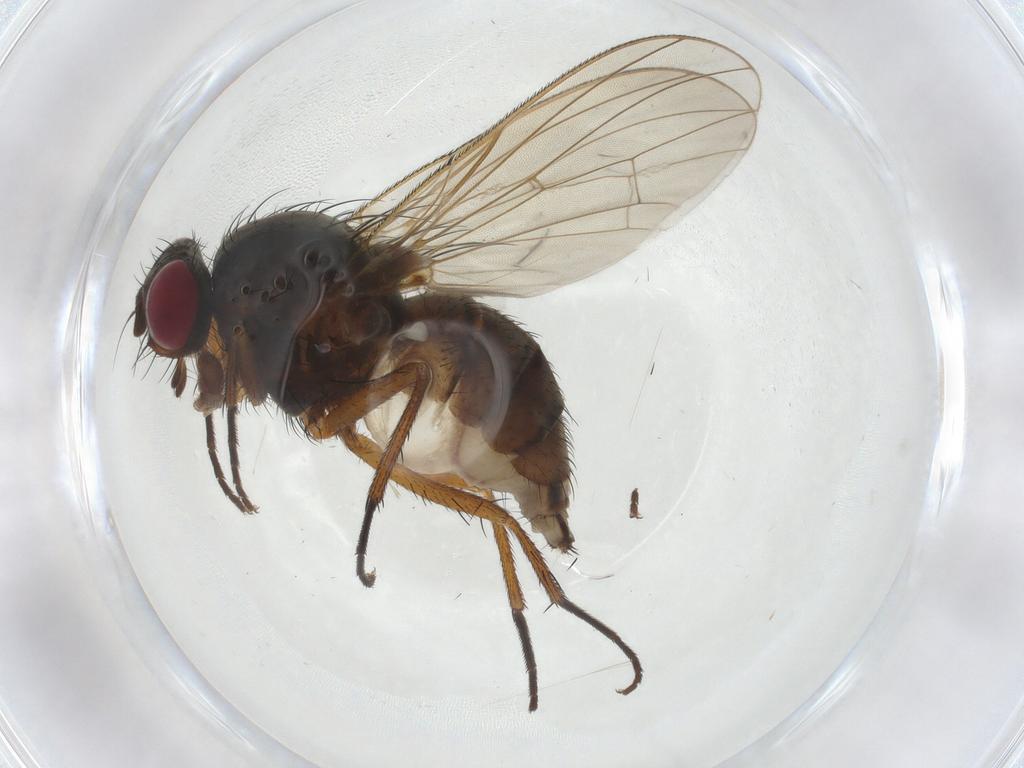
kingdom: Animalia
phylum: Arthropoda
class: Insecta
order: Diptera
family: Anthomyiidae
